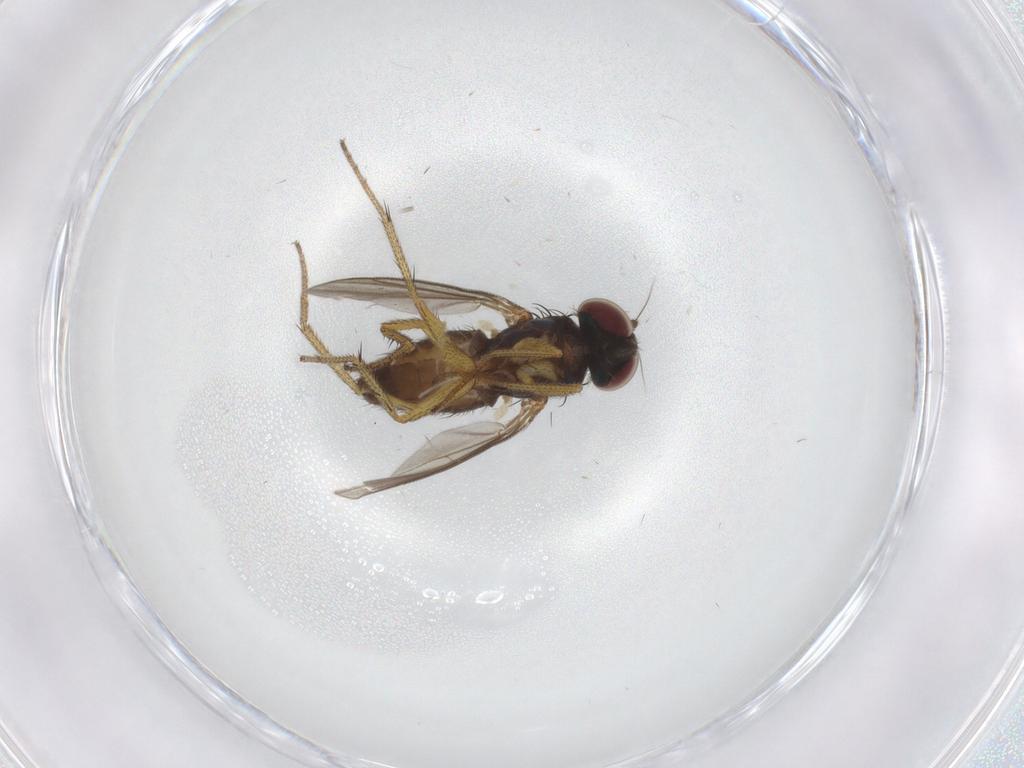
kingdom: Animalia
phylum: Arthropoda
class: Insecta
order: Diptera
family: Dolichopodidae
